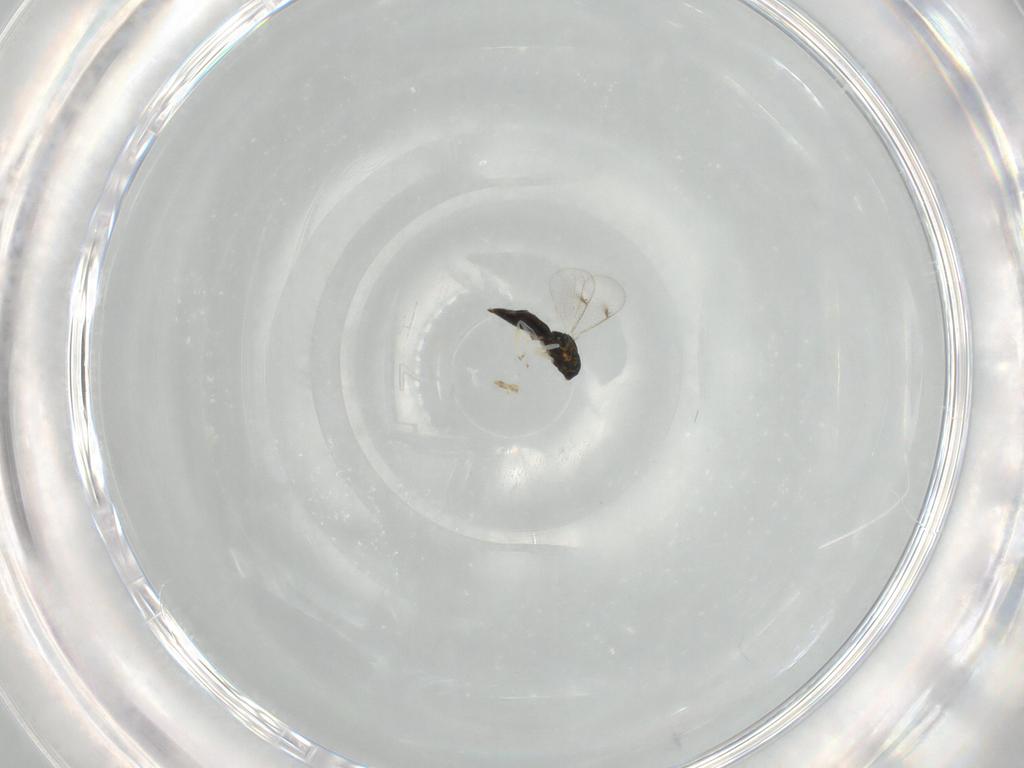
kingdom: Animalia
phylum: Arthropoda
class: Insecta
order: Hymenoptera
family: Eulophidae
